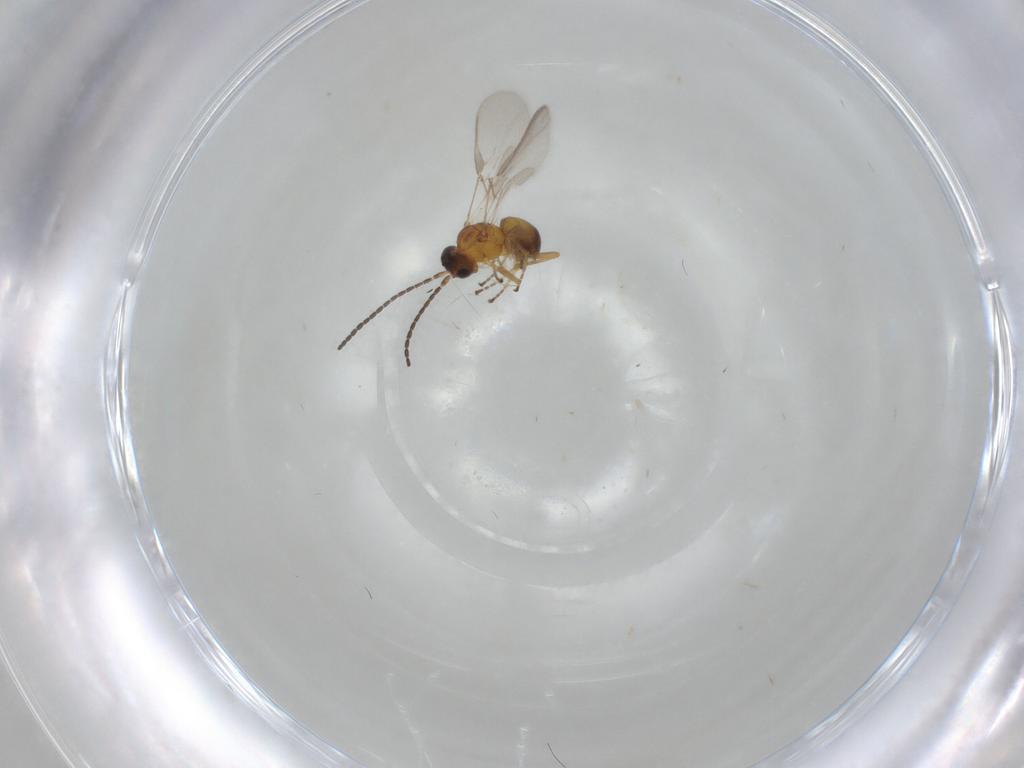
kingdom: Animalia
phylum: Arthropoda
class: Insecta
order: Hymenoptera
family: Braconidae
